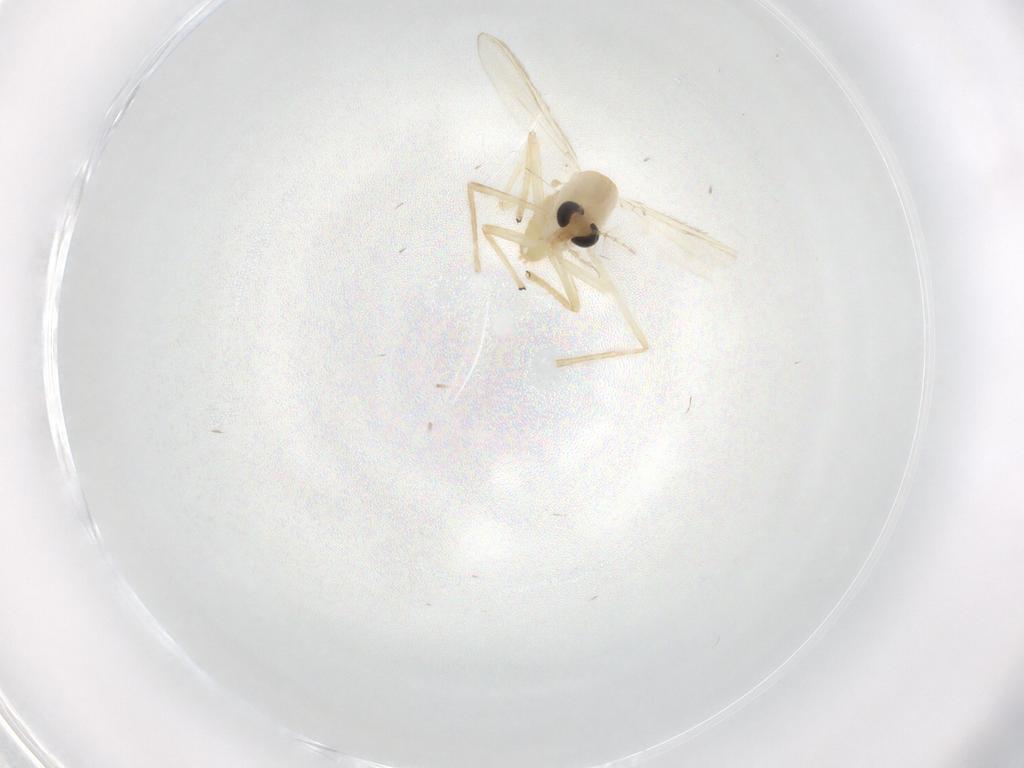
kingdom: Animalia
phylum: Arthropoda
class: Insecta
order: Diptera
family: Chironomidae
